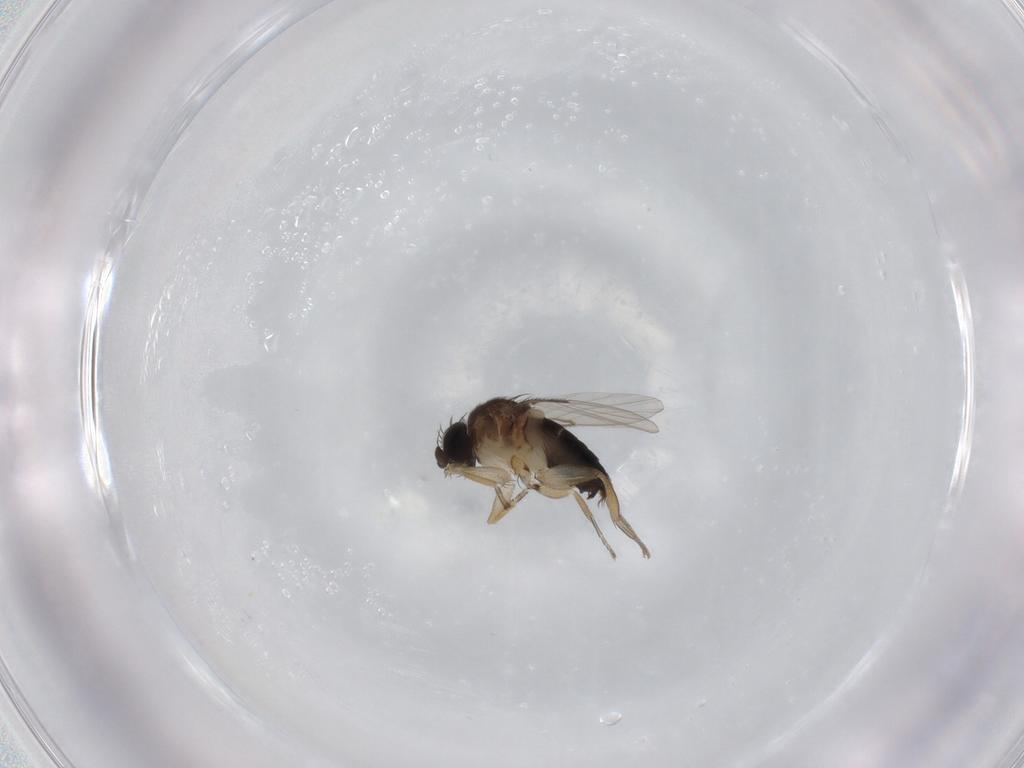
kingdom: Animalia
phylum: Arthropoda
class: Insecta
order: Diptera
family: Phoridae
